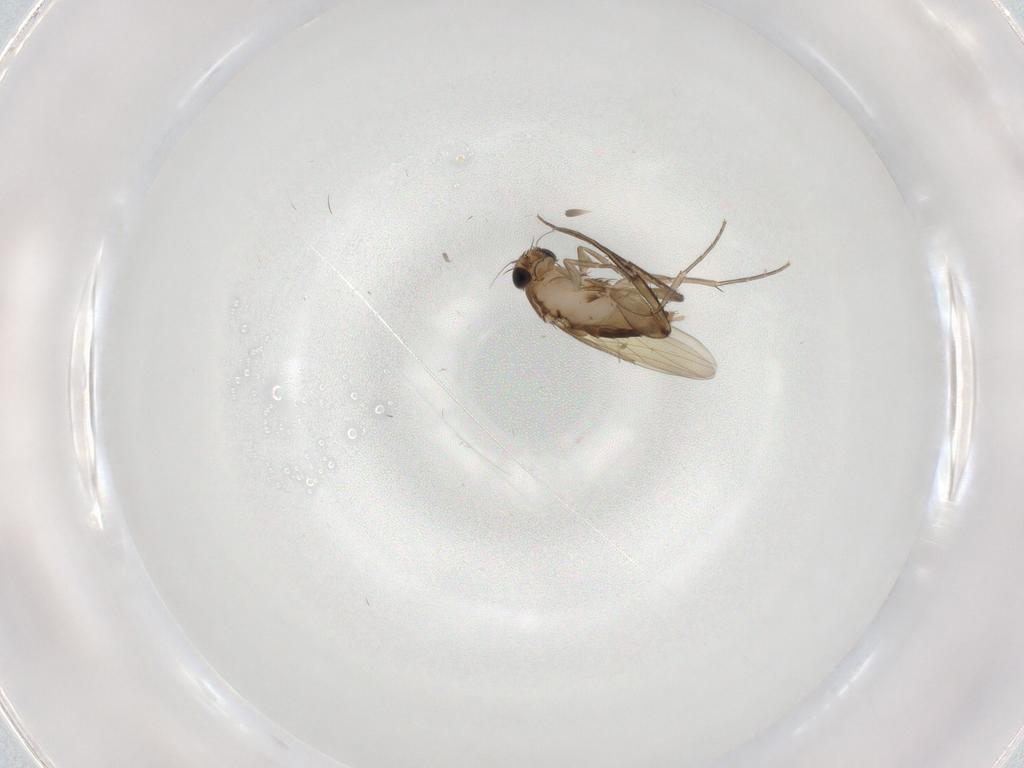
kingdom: Animalia
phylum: Arthropoda
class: Insecta
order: Diptera
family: Phoridae
